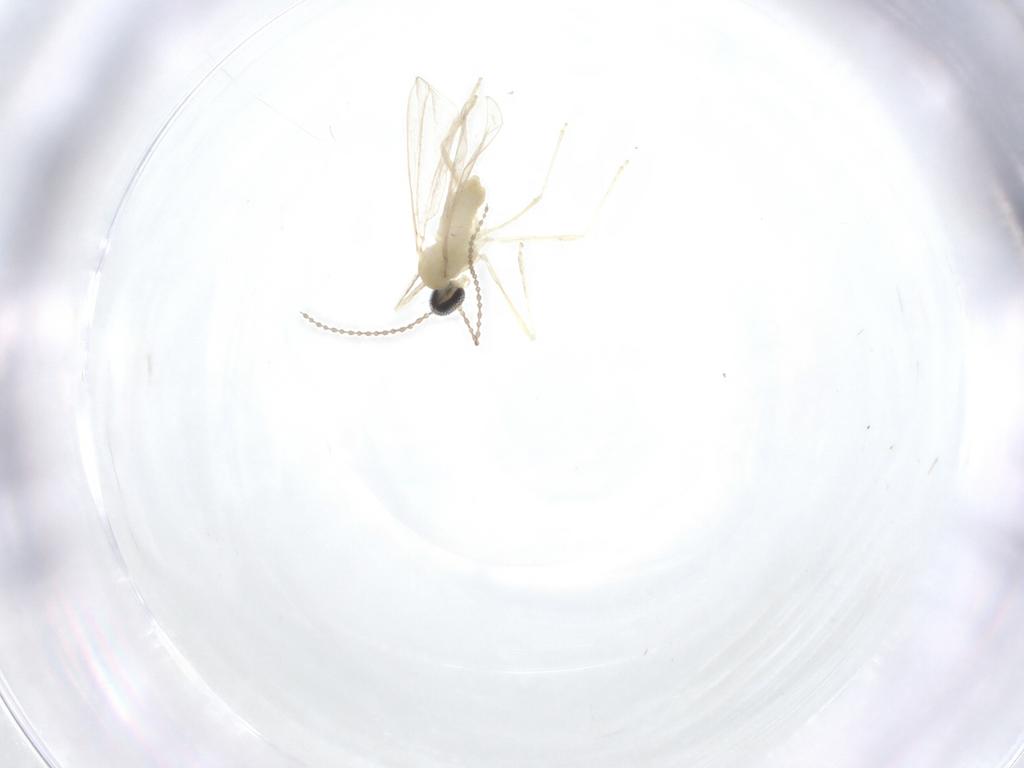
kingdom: Animalia
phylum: Arthropoda
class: Insecta
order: Diptera
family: Cecidomyiidae
